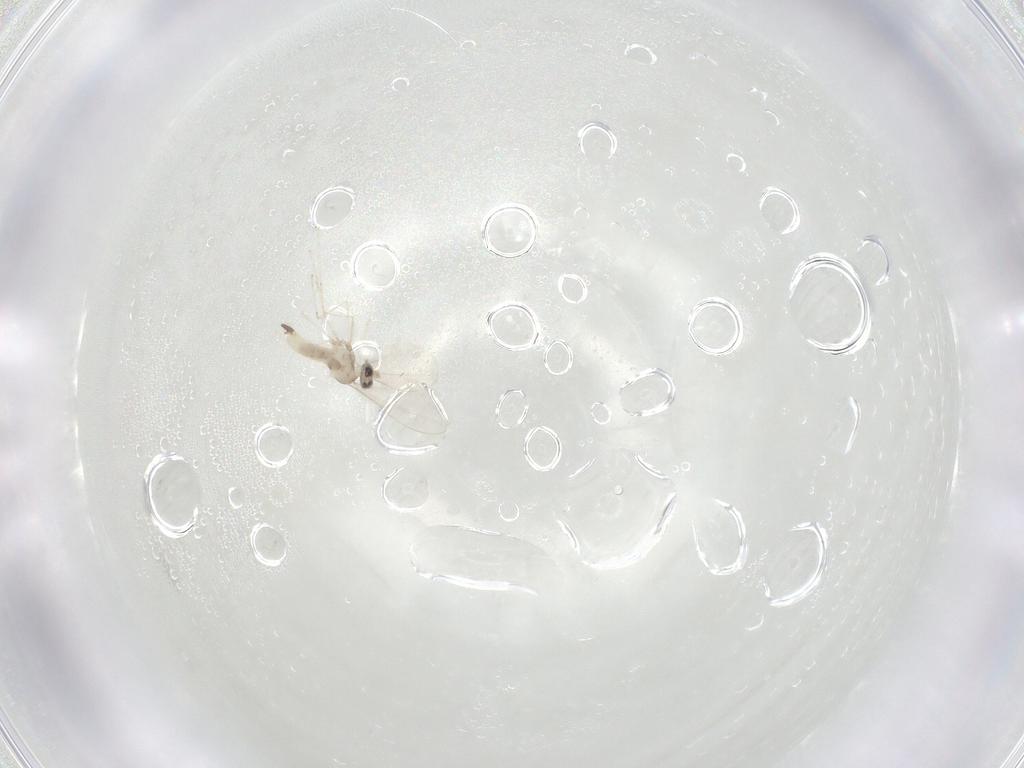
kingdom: Animalia
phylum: Arthropoda
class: Insecta
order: Diptera
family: Cecidomyiidae
